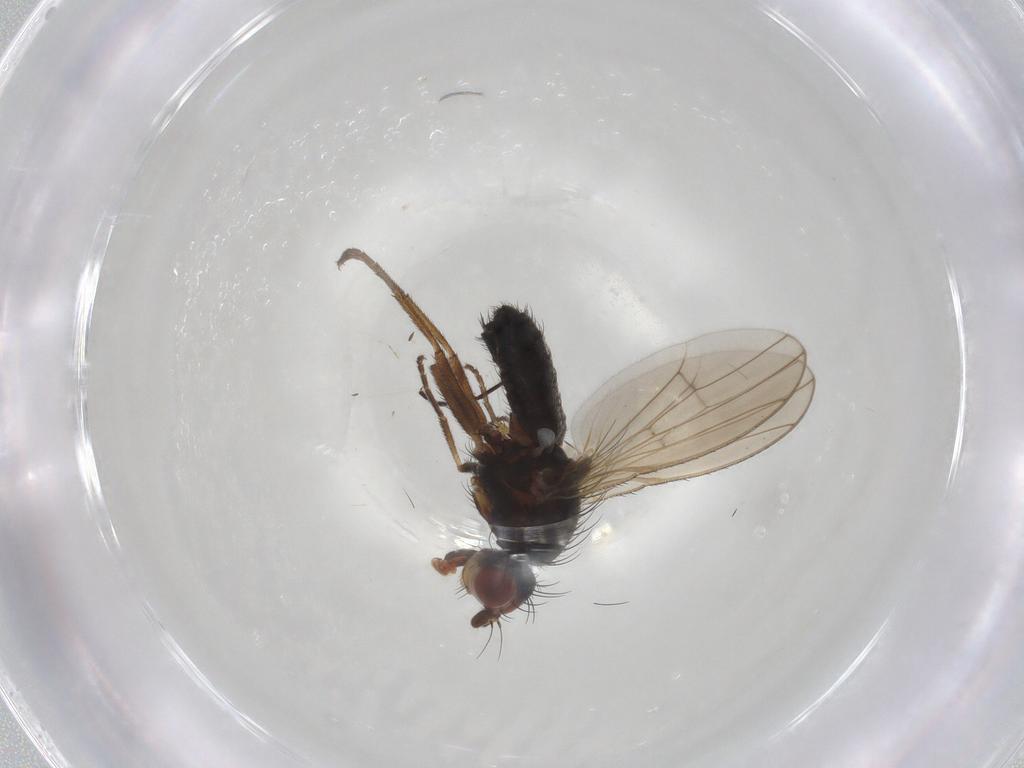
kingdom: Animalia
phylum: Arthropoda
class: Insecta
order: Diptera
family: Heleomyzidae
